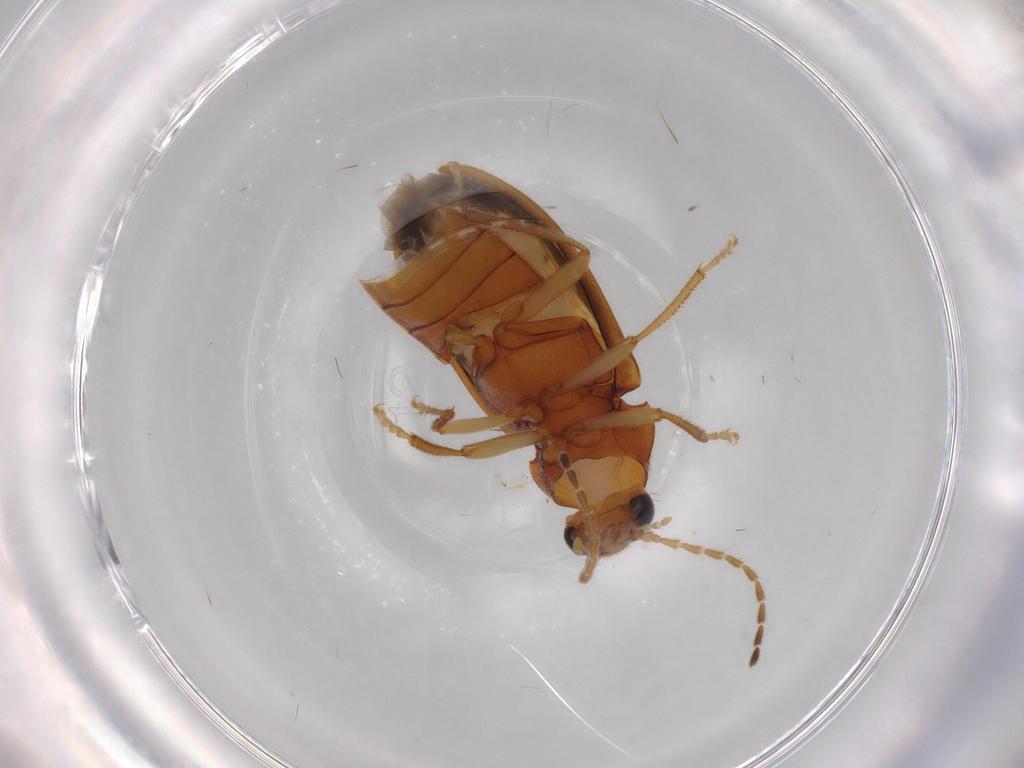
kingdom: Animalia
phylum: Arthropoda
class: Insecta
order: Coleoptera
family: Ptilodactylidae
